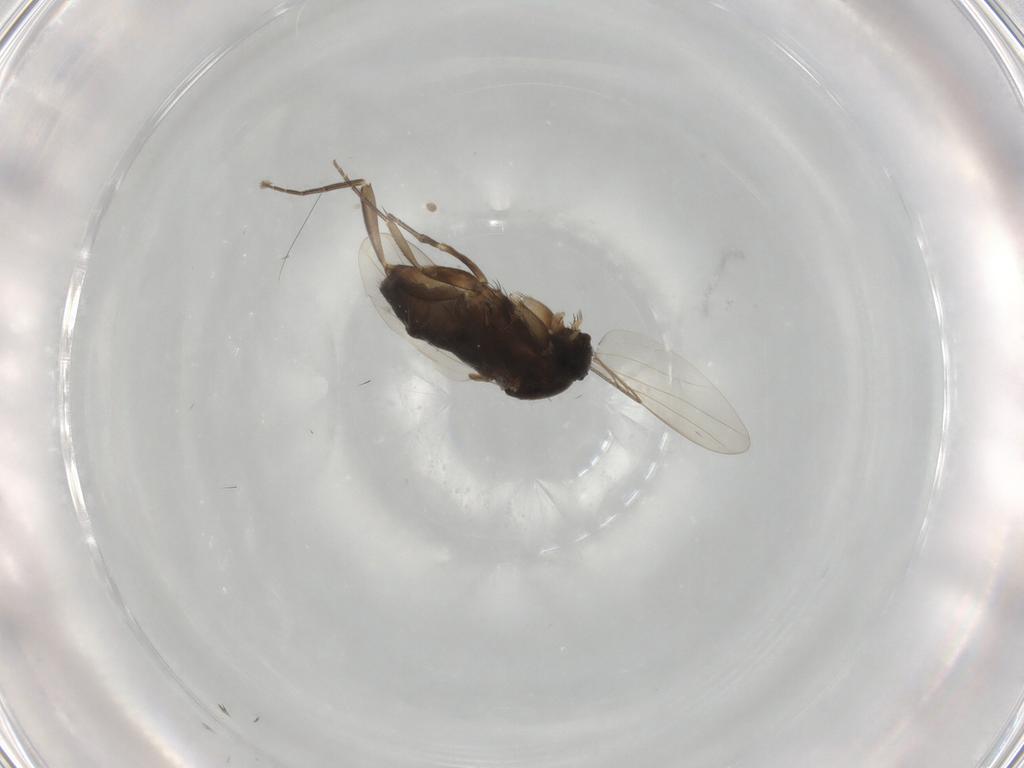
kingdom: Animalia
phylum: Arthropoda
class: Insecta
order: Diptera
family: Phoridae
